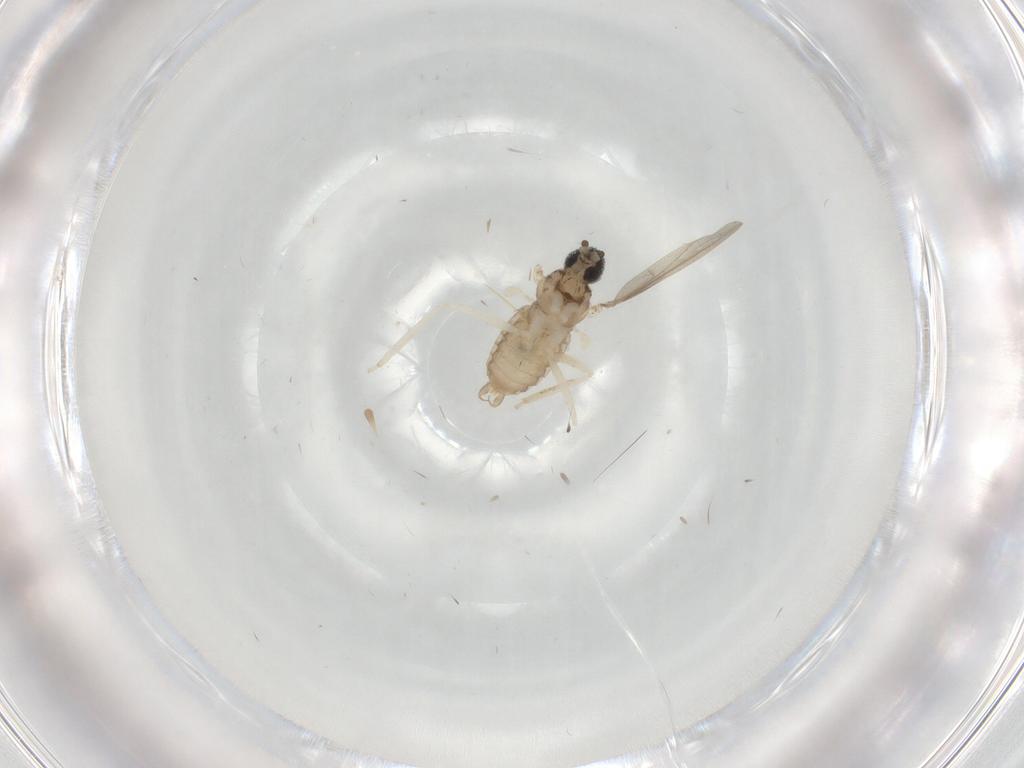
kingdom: Animalia
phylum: Arthropoda
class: Insecta
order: Diptera
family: Chironomidae
